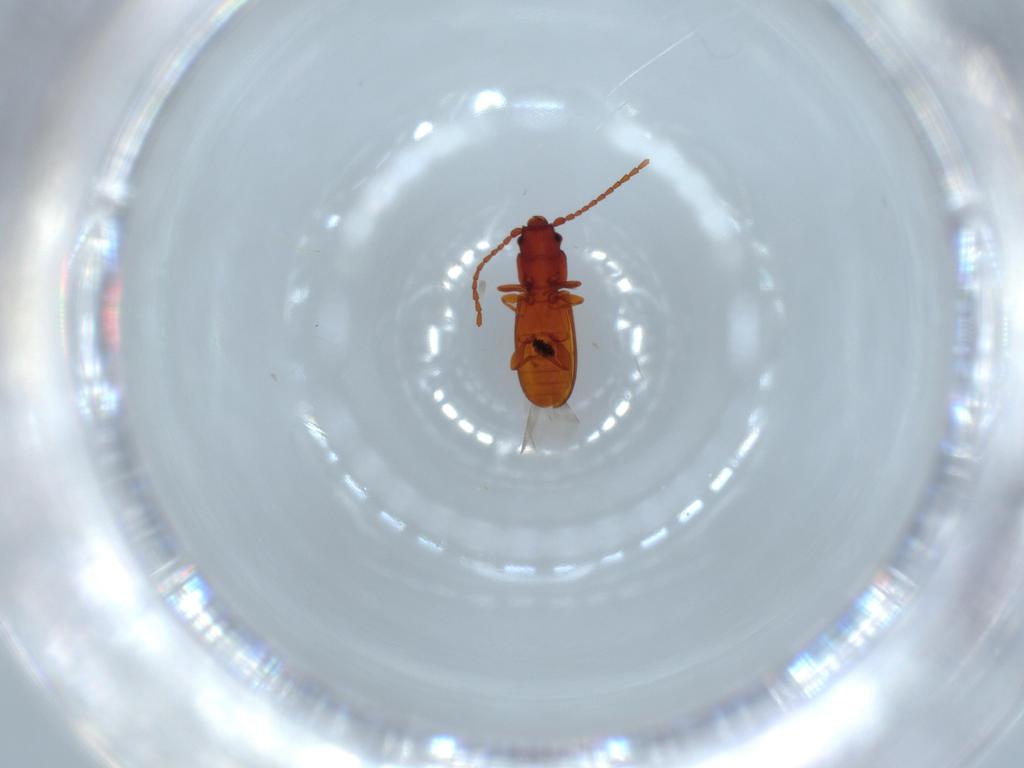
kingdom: Animalia
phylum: Arthropoda
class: Insecta
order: Coleoptera
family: Laemophloeidae
